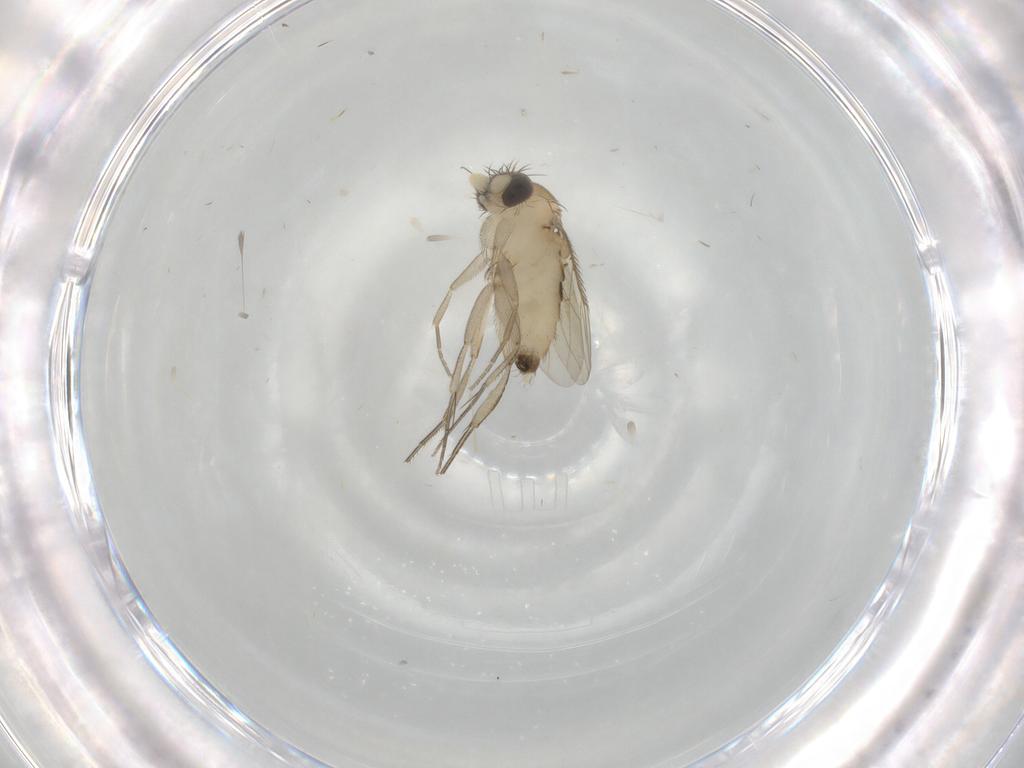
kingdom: Animalia
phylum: Arthropoda
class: Insecta
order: Diptera
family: Phoridae
